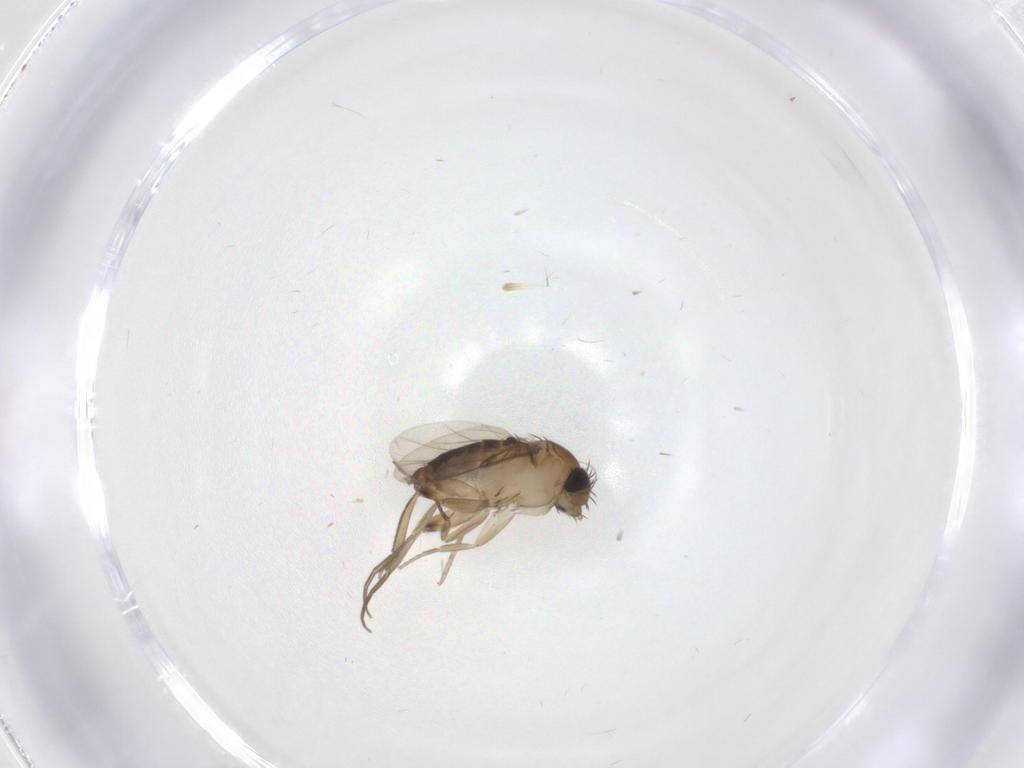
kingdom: Animalia
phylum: Arthropoda
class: Insecta
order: Diptera
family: Phoridae
